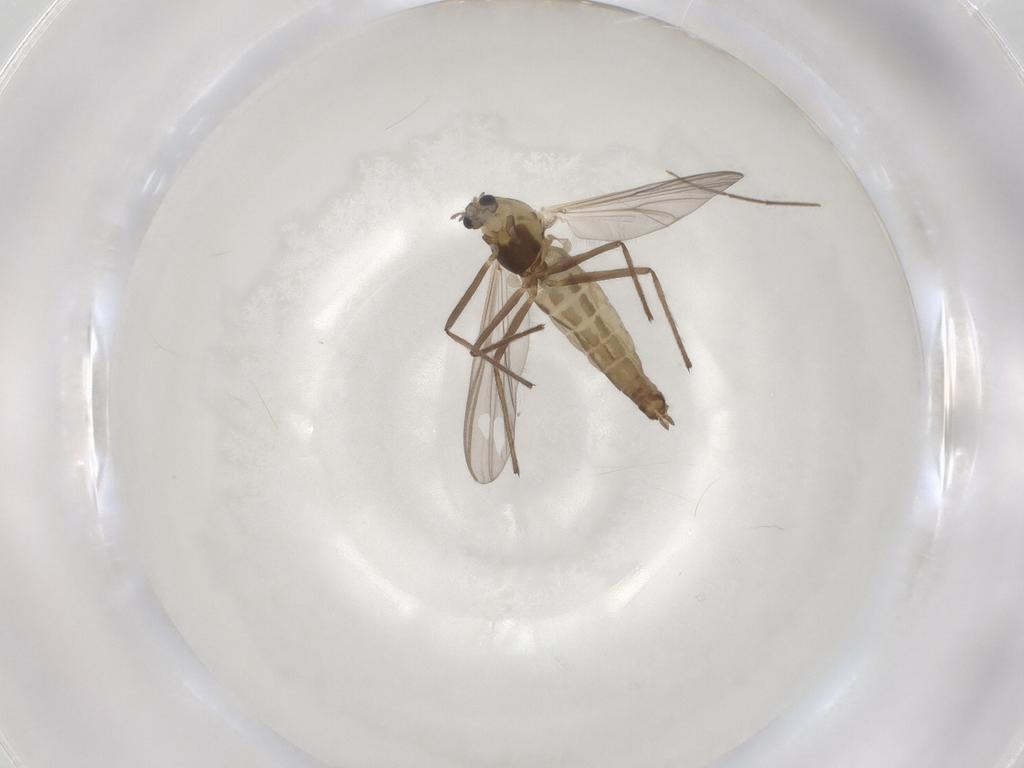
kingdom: Animalia
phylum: Arthropoda
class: Insecta
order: Diptera
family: Chironomidae
